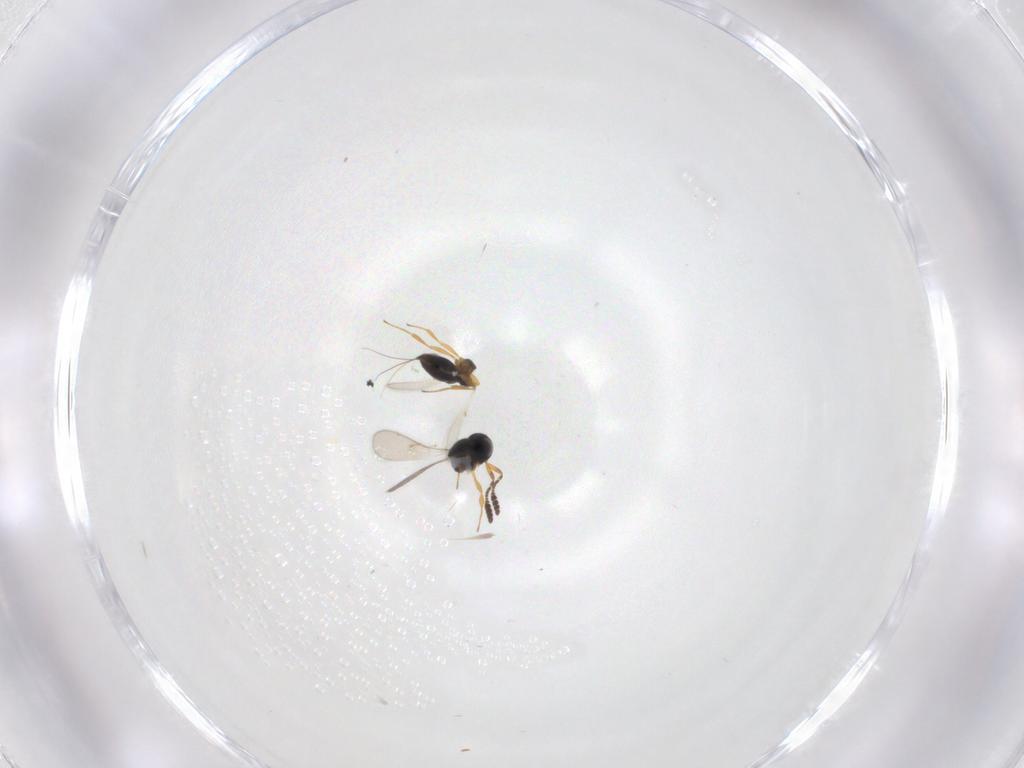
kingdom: Animalia
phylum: Arthropoda
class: Insecta
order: Hymenoptera
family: Scelionidae
